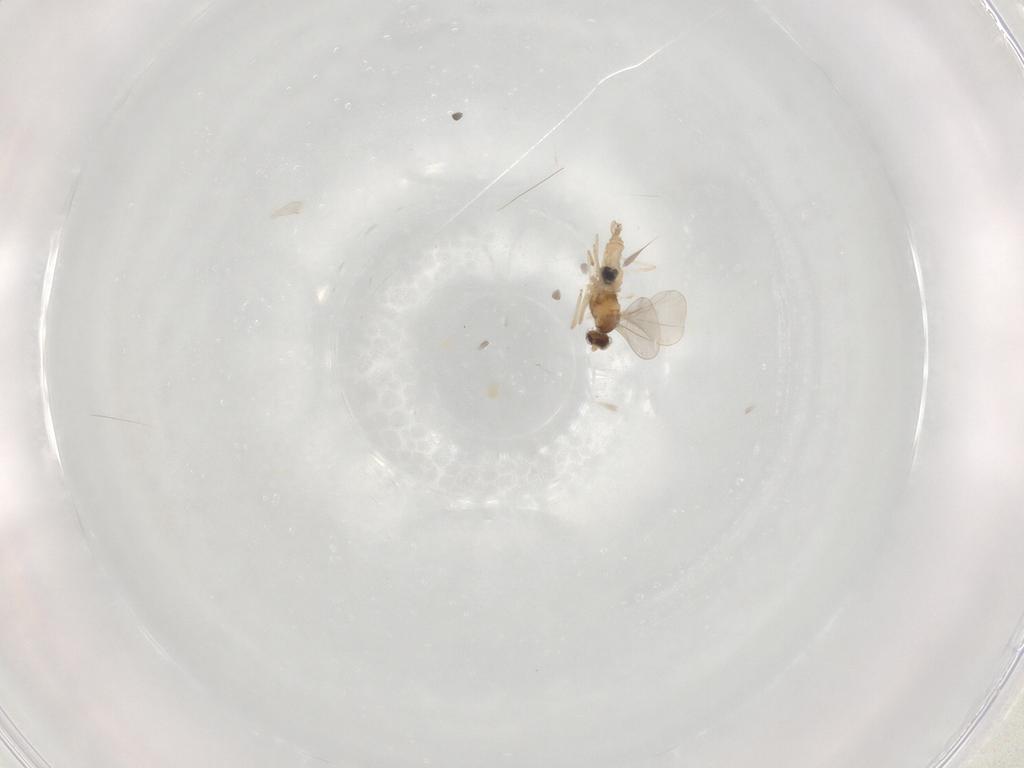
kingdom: Animalia
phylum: Arthropoda
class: Insecta
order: Diptera
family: Cecidomyiidae
